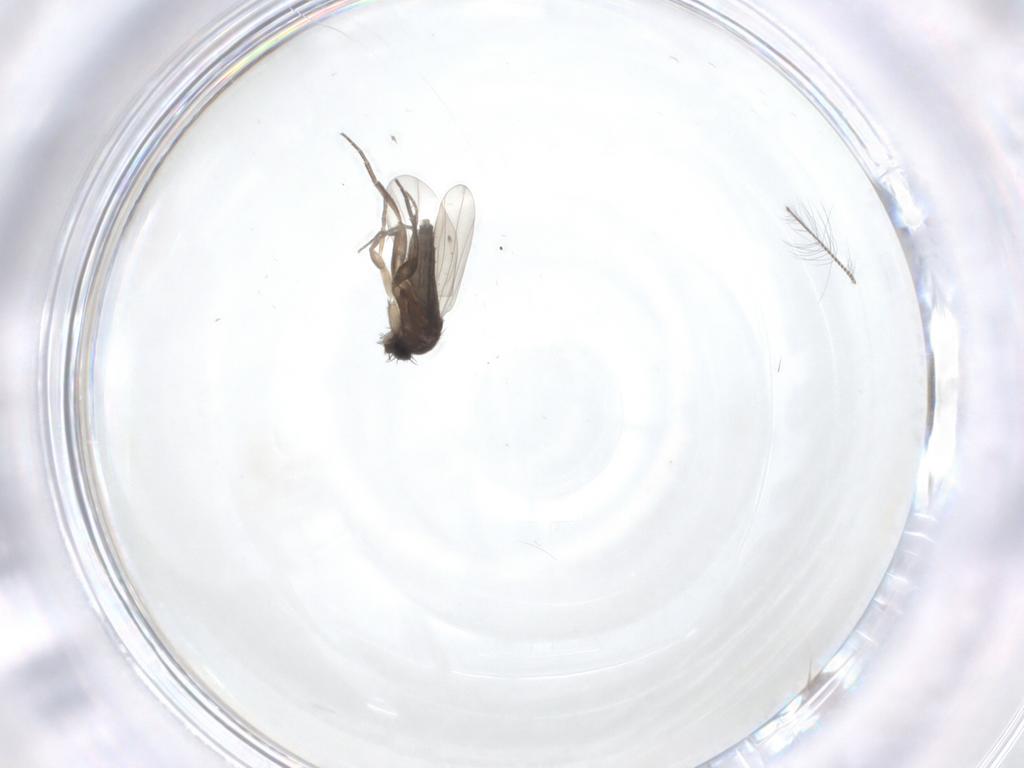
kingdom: Animalia
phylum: Arthropoda
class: Insecta
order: Diptera
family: Phoridae
